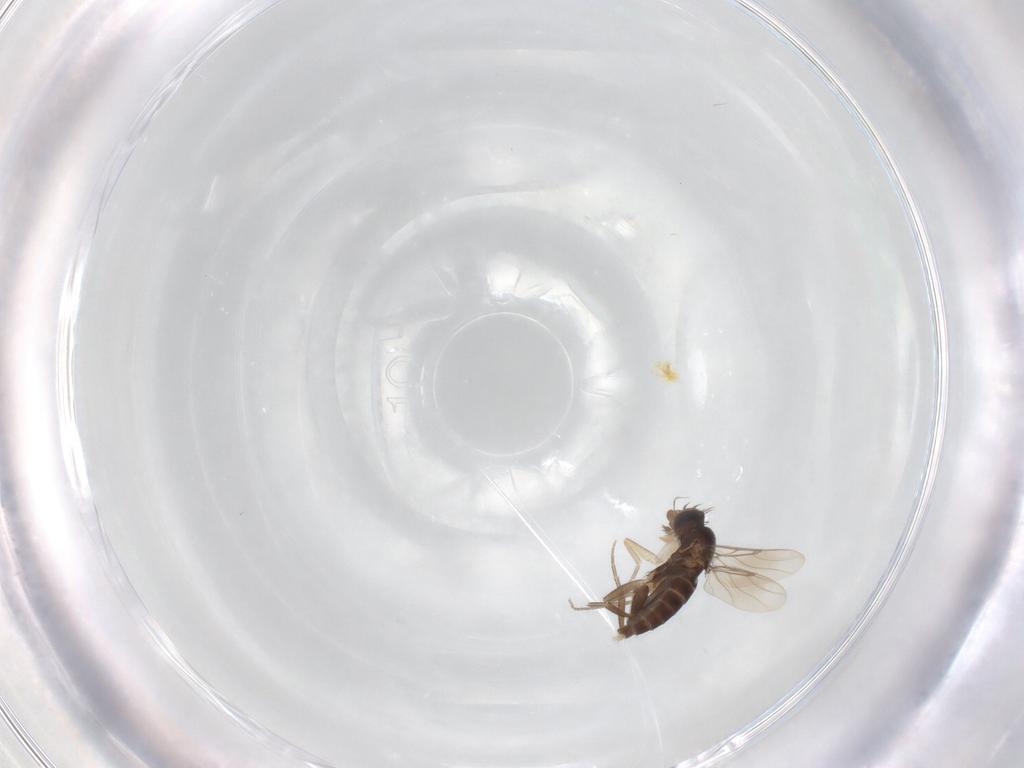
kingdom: Animalia
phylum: Arthropoda
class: Insecta
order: Diptera
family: Phoridae
